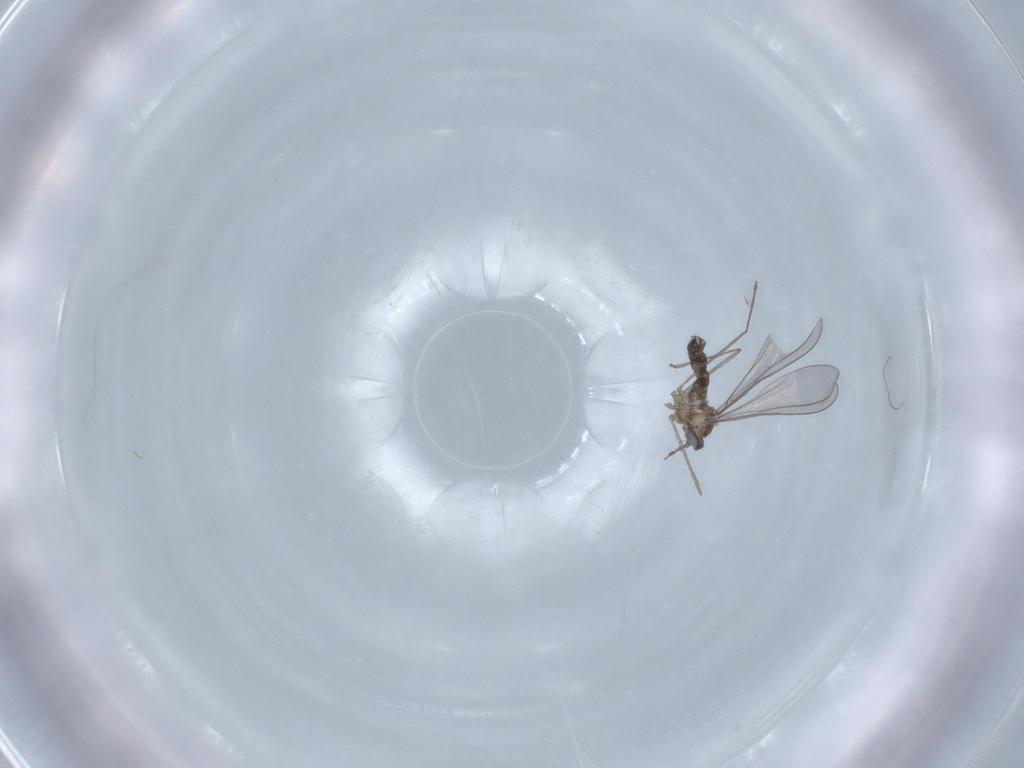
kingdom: Animalia
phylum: Arthropoda
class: Insecta
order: Diptera
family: Cecidomyiidae
